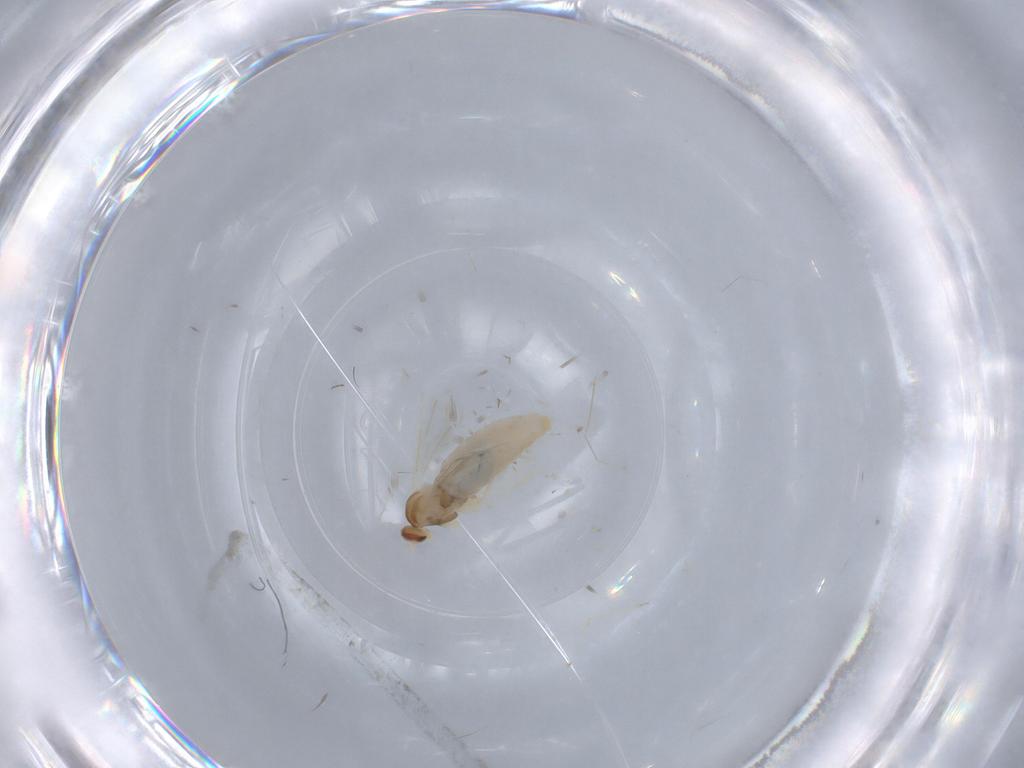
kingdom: Animalia
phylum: Arthropoda
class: Insecta
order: Diptera
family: Cecidomyiidae
